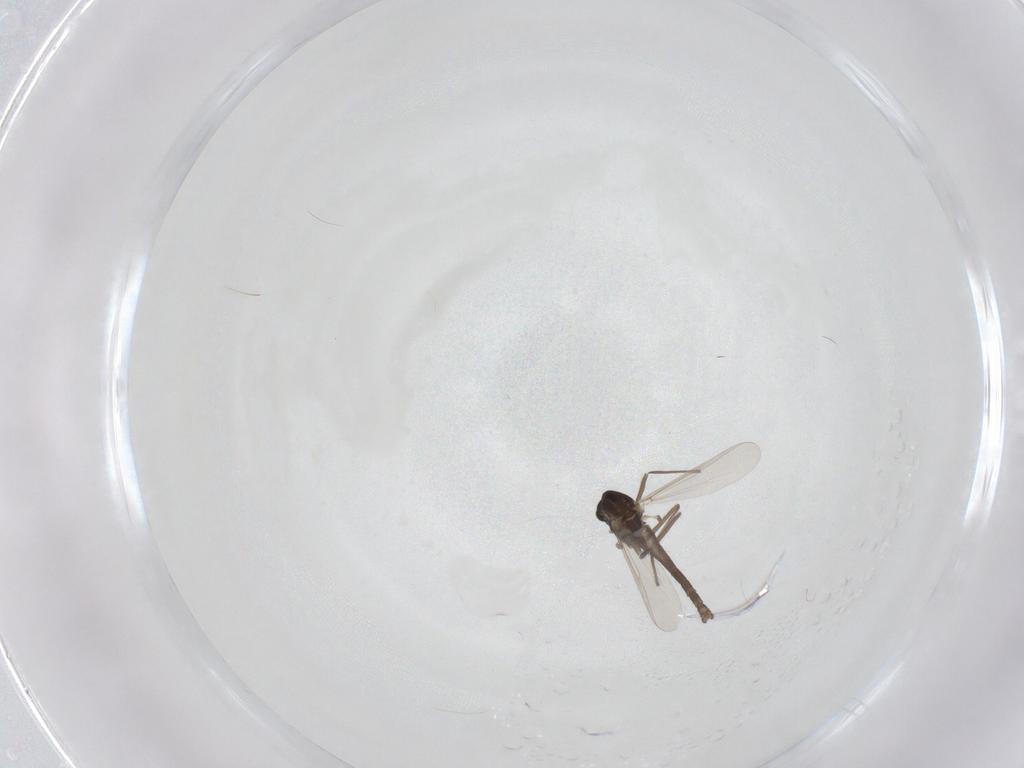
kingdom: Animalia
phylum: Arthropoda
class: Insecta
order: Diptera
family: Chironomidae
